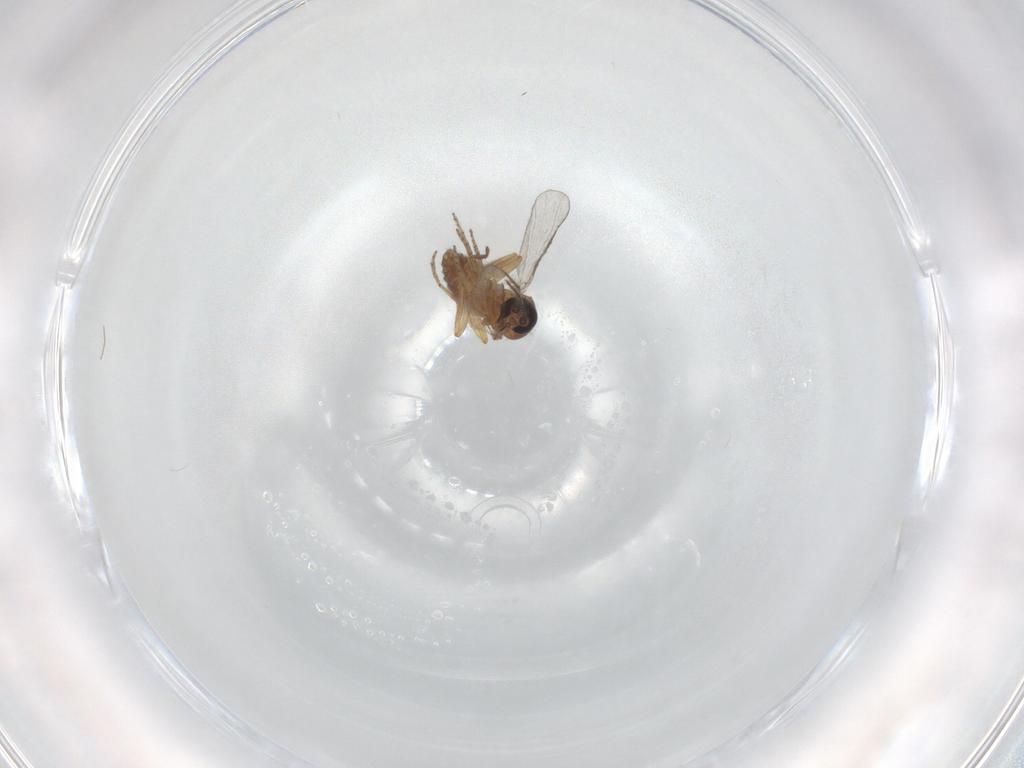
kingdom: Animalia
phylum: Arthropoda
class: Insecta
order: Diptera
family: Ceratopogonidae
